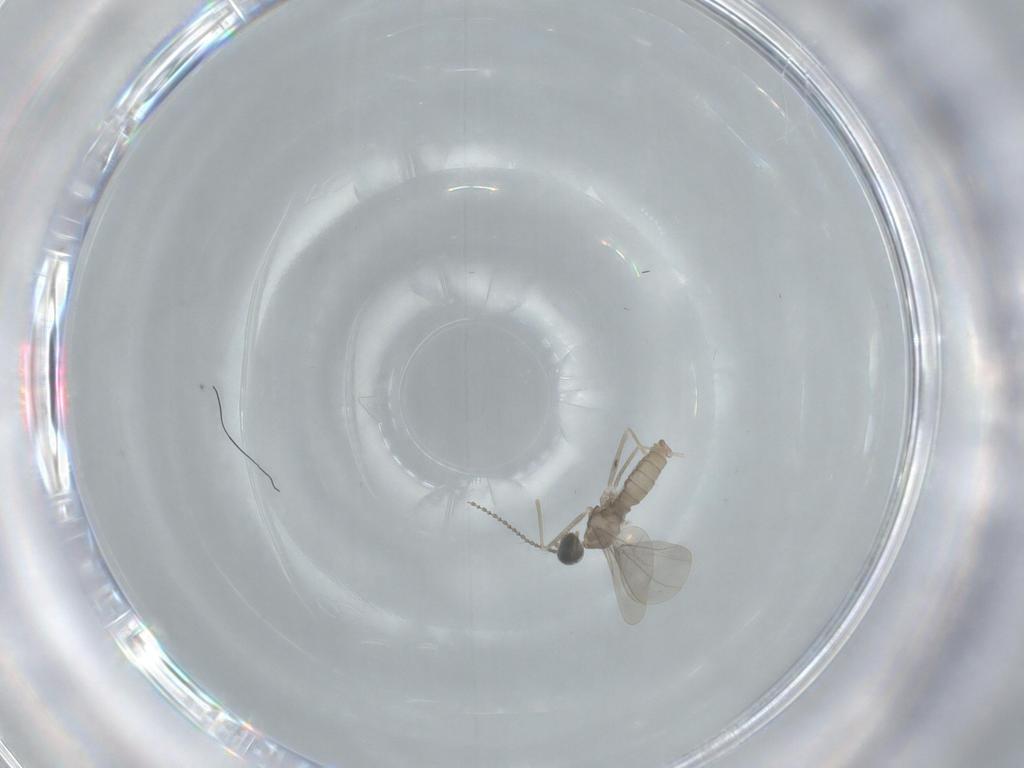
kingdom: Animalia
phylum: Arthropoda
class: Insecta
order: Diptera
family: Cecidomyiidae
